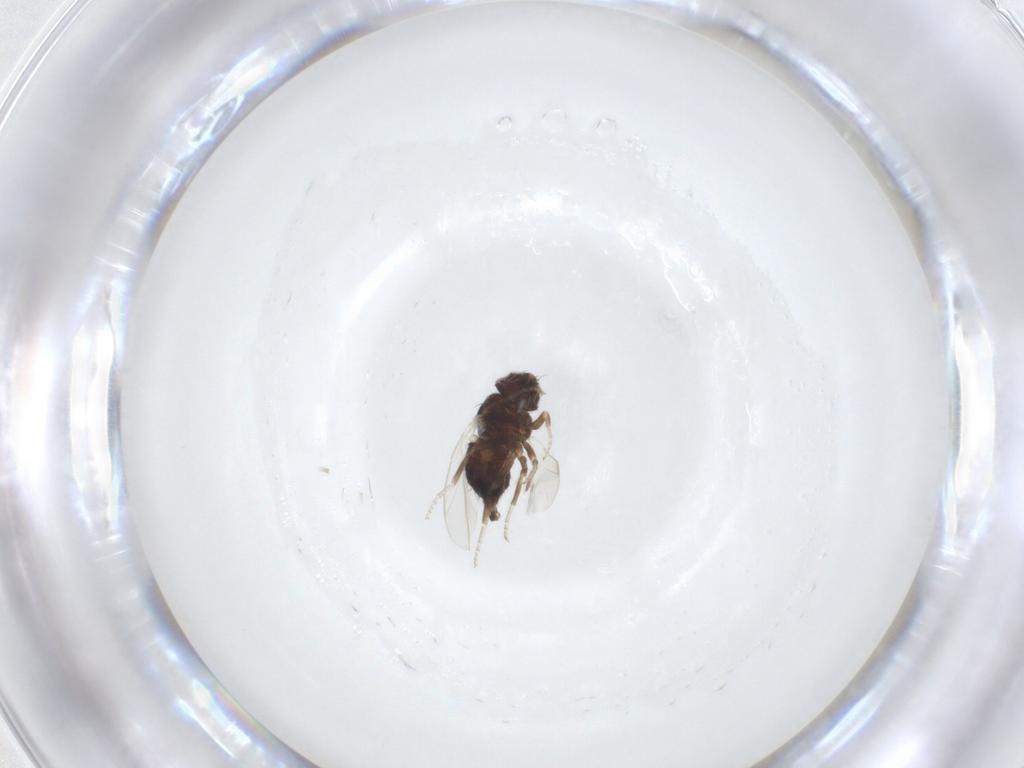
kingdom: Animalia
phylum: Arthropoda
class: Insecta
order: Diptera
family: Agromyzidae
